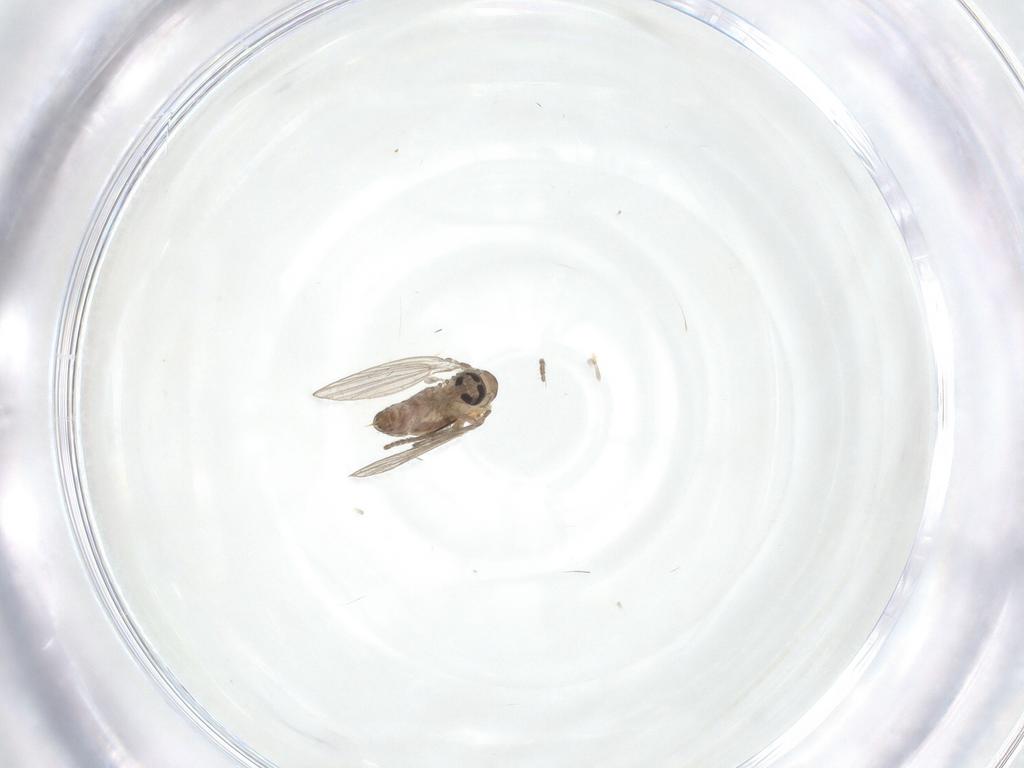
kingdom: Animalia
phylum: Arthropoda
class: Insecta
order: Diptera
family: Psychodidae
